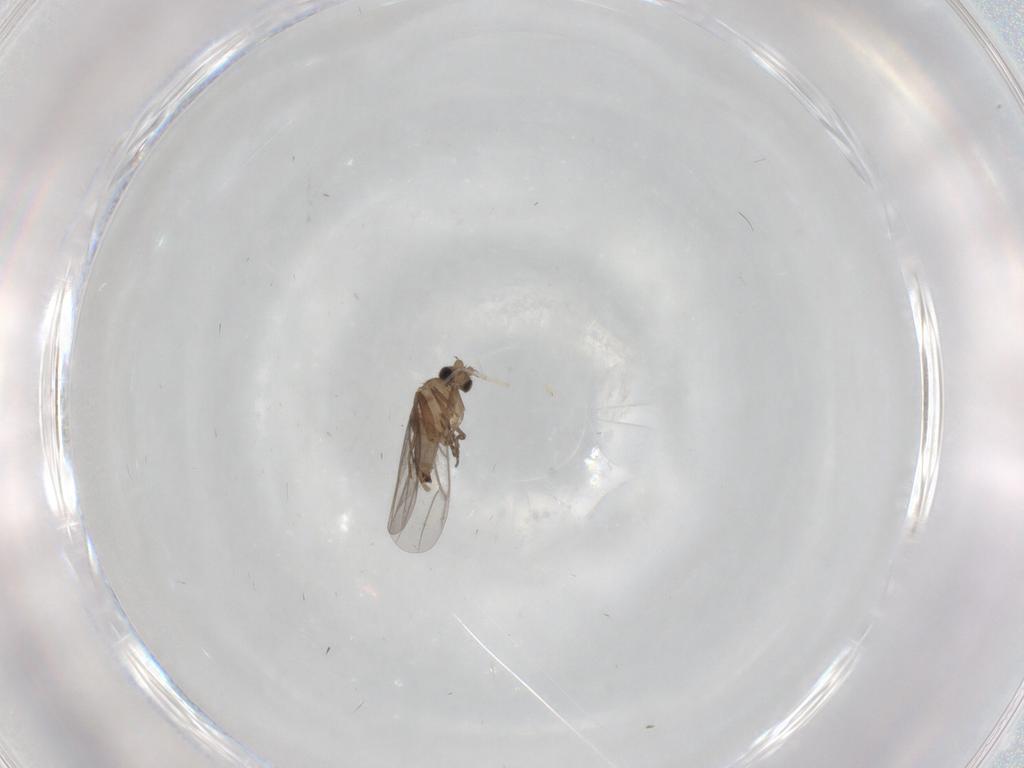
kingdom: Animalia
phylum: Arthropoda
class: Insecta
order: Diptera
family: Cecidomyiidae
